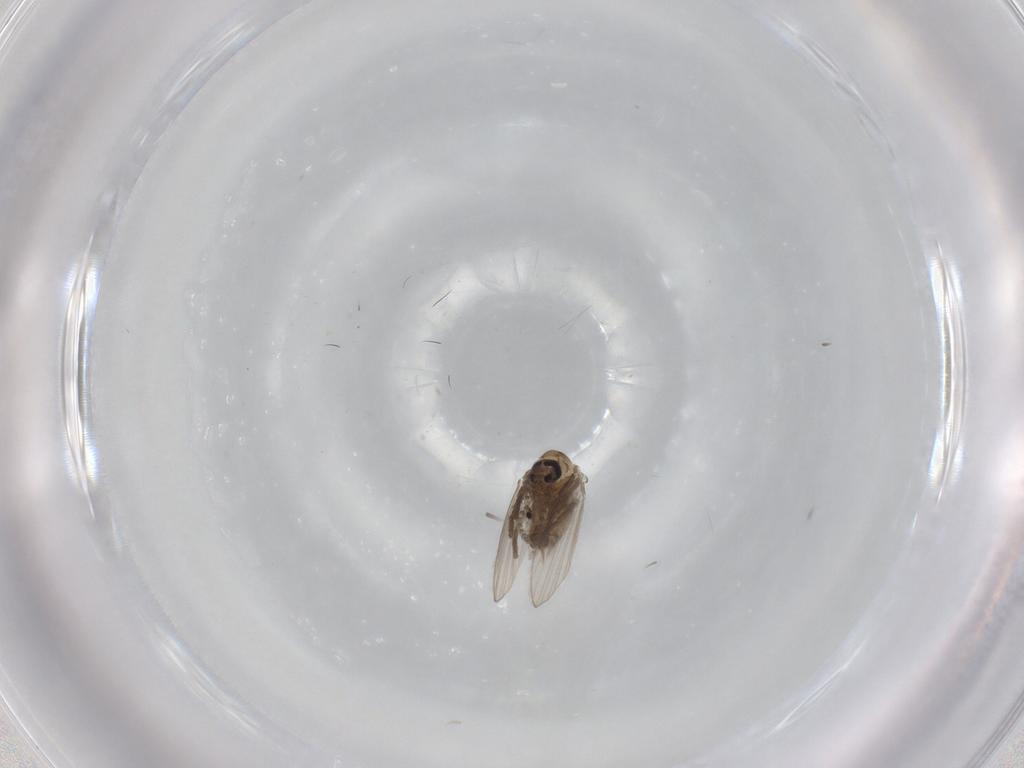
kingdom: Animalia
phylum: Arthropoda
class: Insecta
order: Diptera
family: Psychodidae
